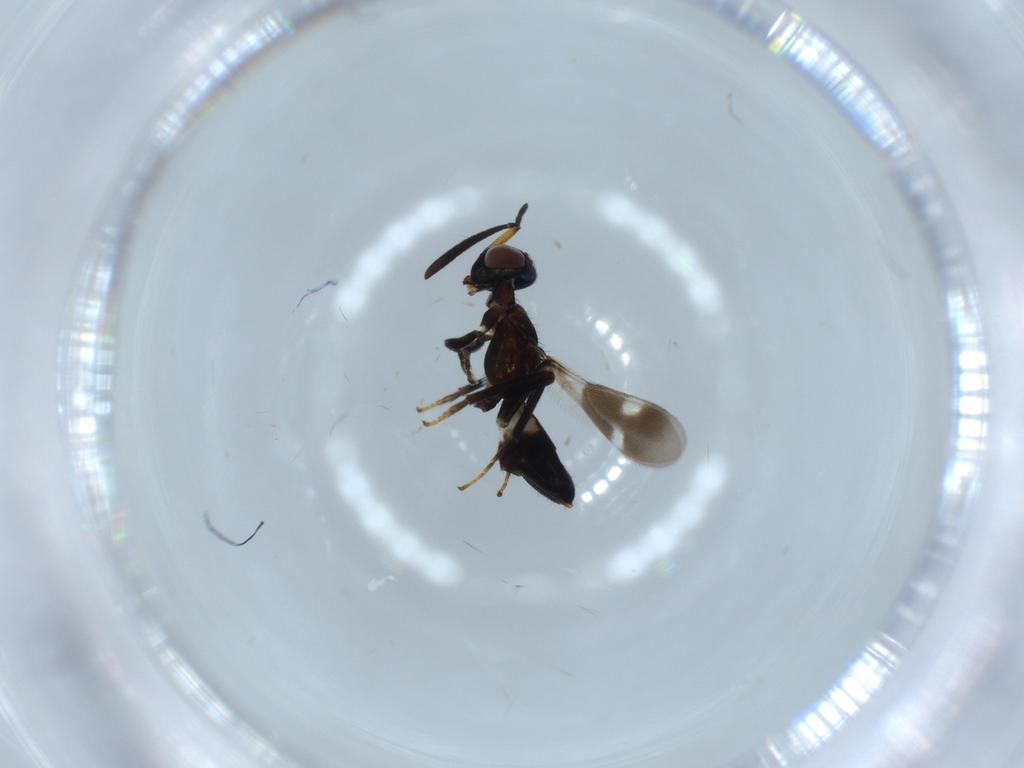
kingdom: Animalia
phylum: Arthropoda
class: Insecta
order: Hymenoptera
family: Eupelmidae
